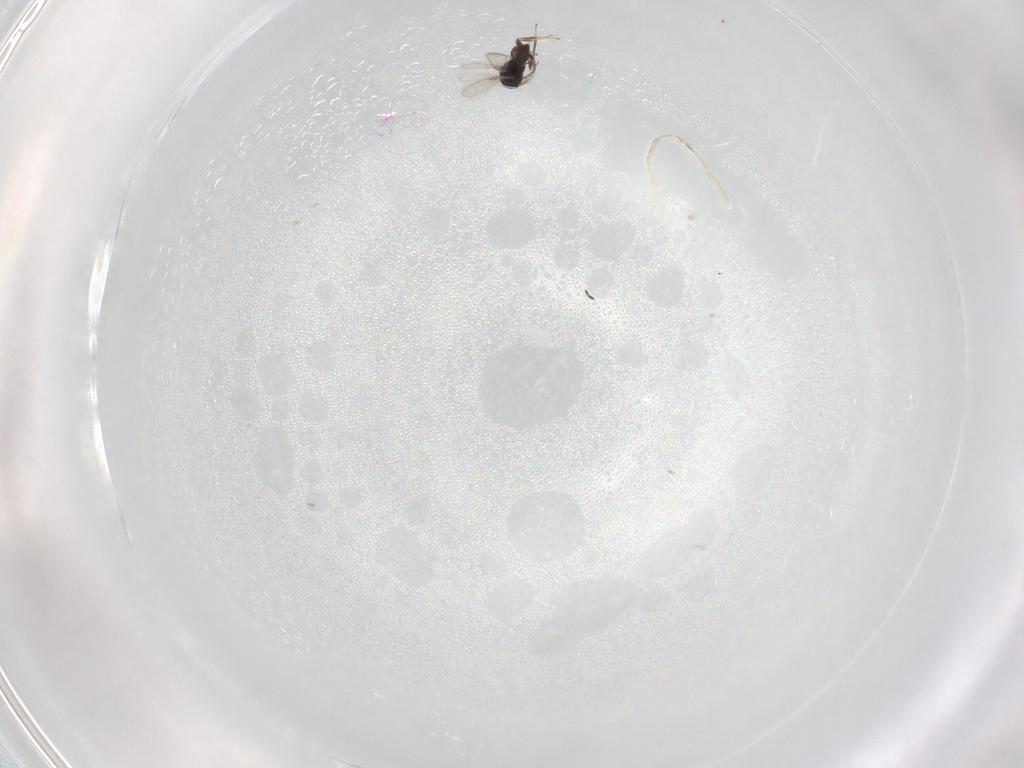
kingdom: Animalia
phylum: Arthropoda
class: Insecta
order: Hymenoptera
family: Scelionidae
